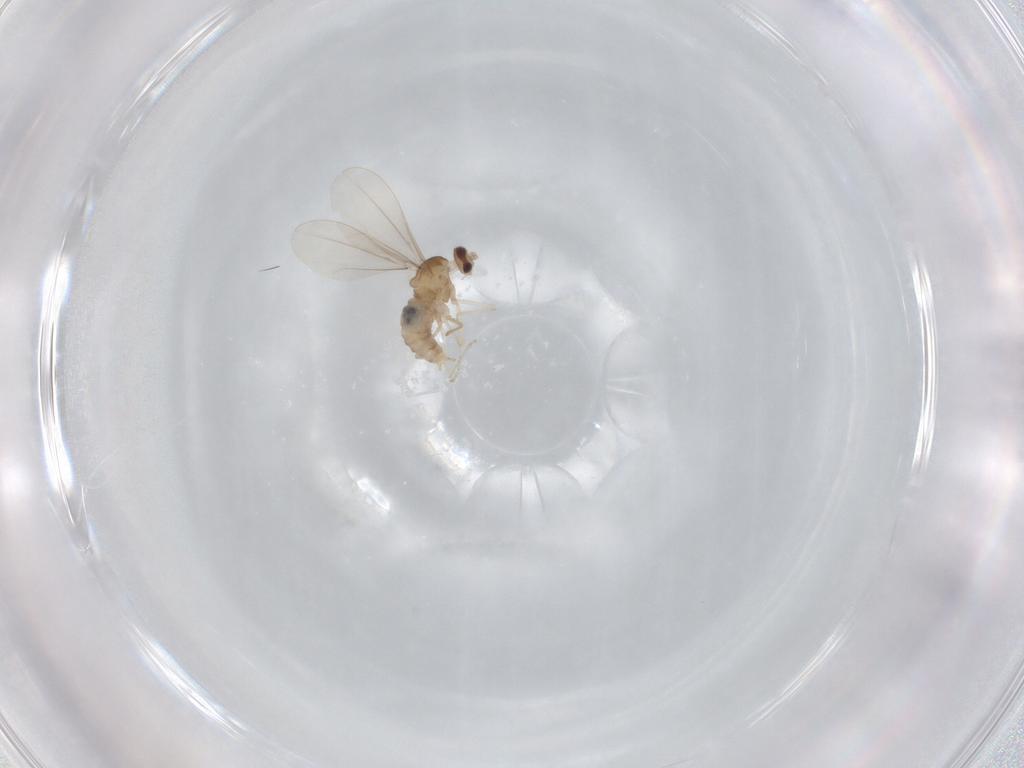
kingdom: Animalia
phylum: Arthropoda
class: Insecta
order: Diptera
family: Cecidomyiidae
